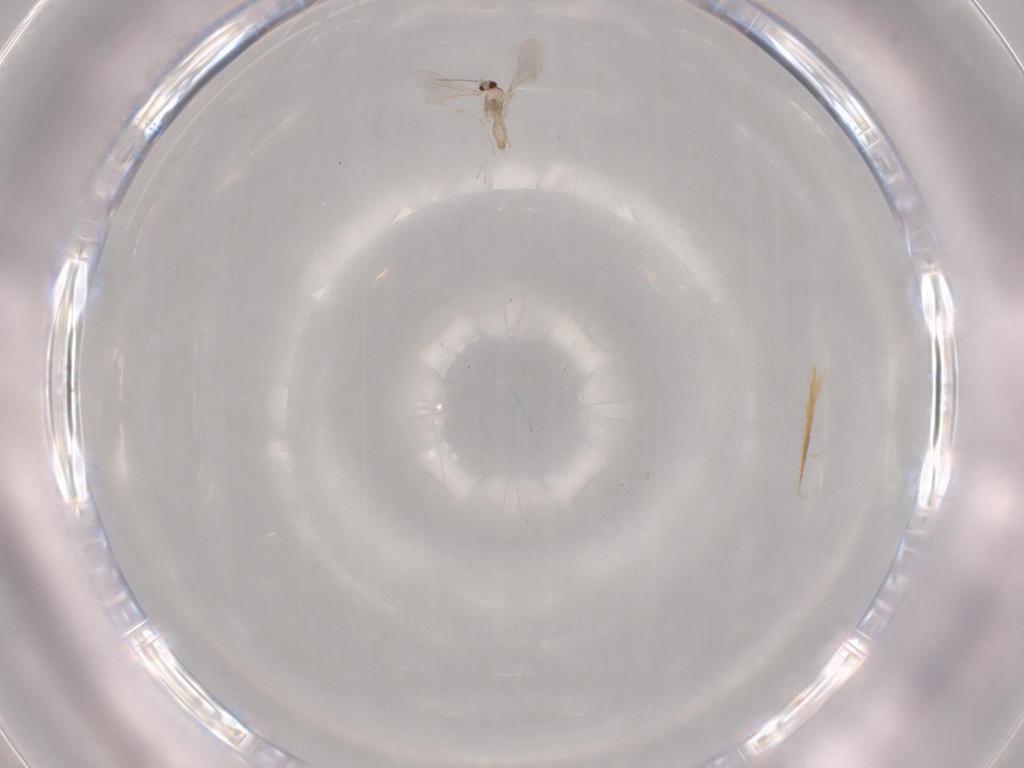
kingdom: Animalia
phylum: Arthropoda
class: Insecta
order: Diptera
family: Cecidomyiidae
